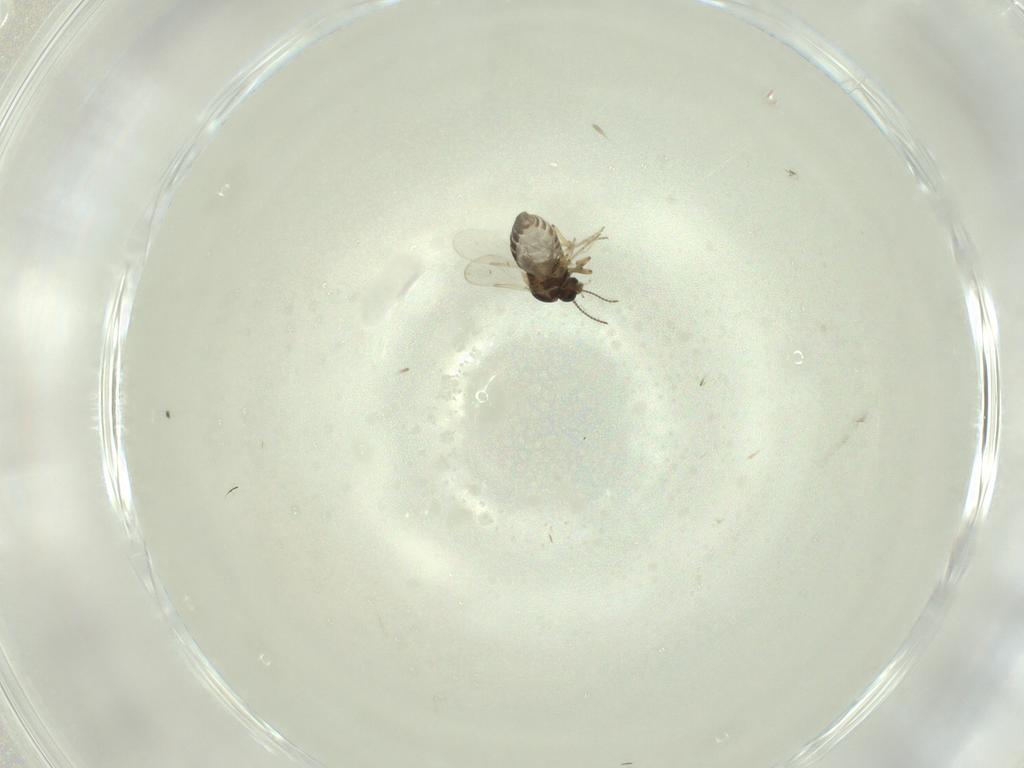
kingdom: Animalia
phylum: Arthropoda
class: Insecta
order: Diptera
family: Ceratopogonidae
